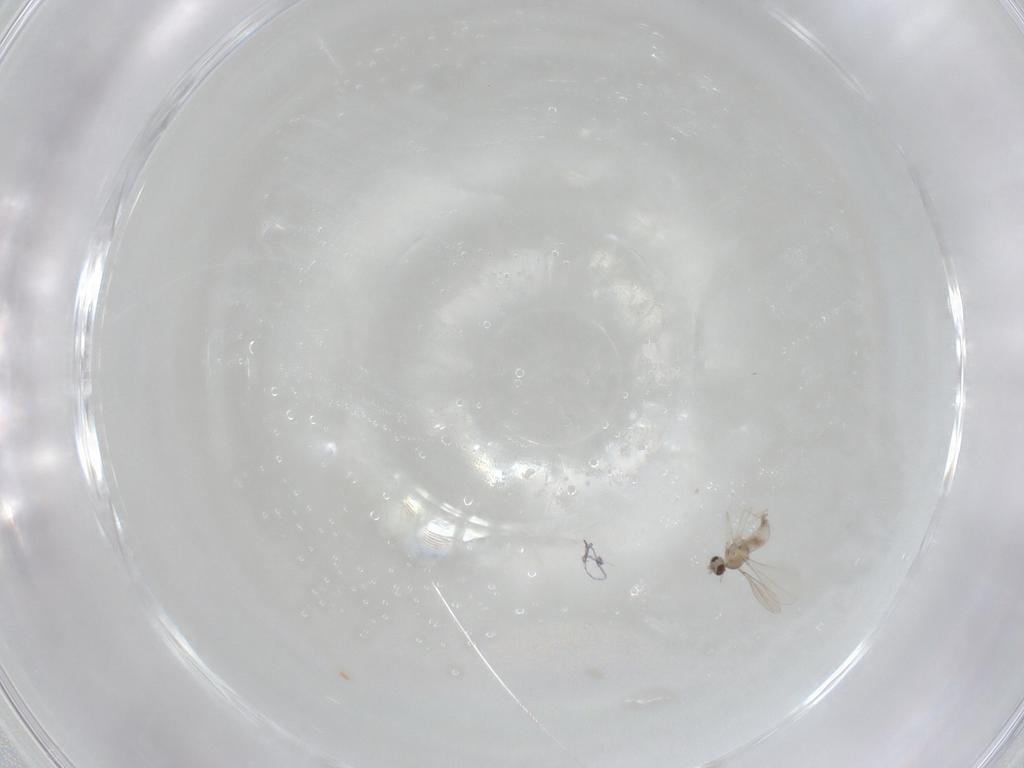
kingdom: Animalia
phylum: Arthropoda
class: Insecta
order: Diptera
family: Cecidomyiidae
